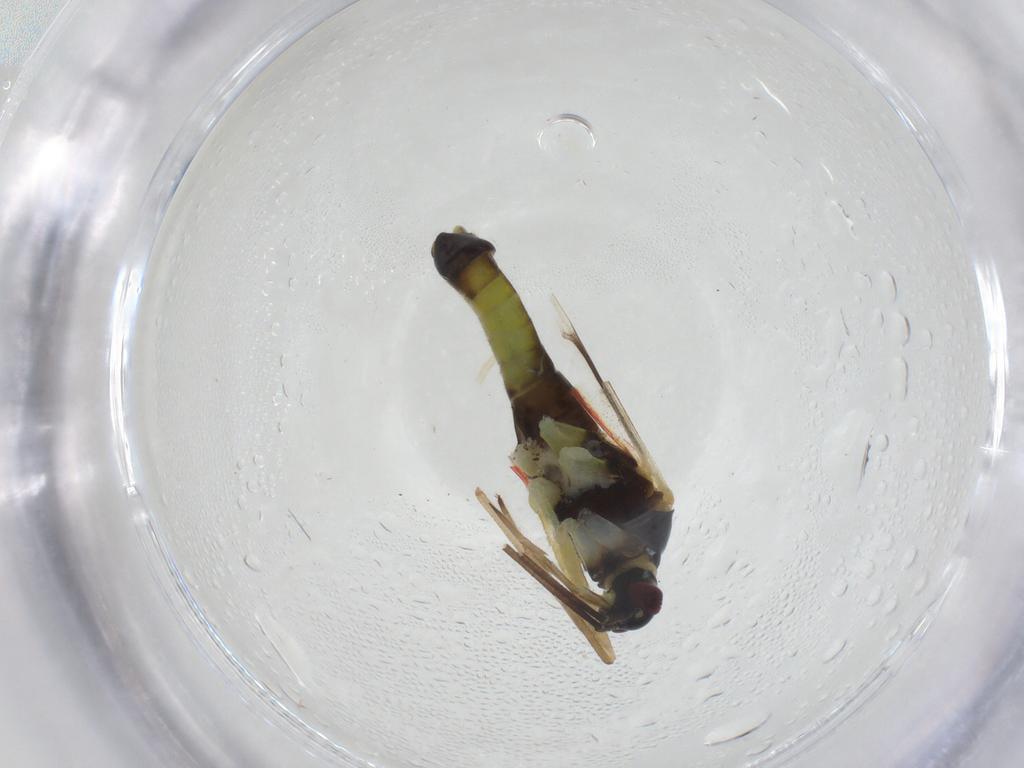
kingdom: Animalia
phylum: Arthropoda
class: Insecta
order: Hemiptera
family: Miridae
